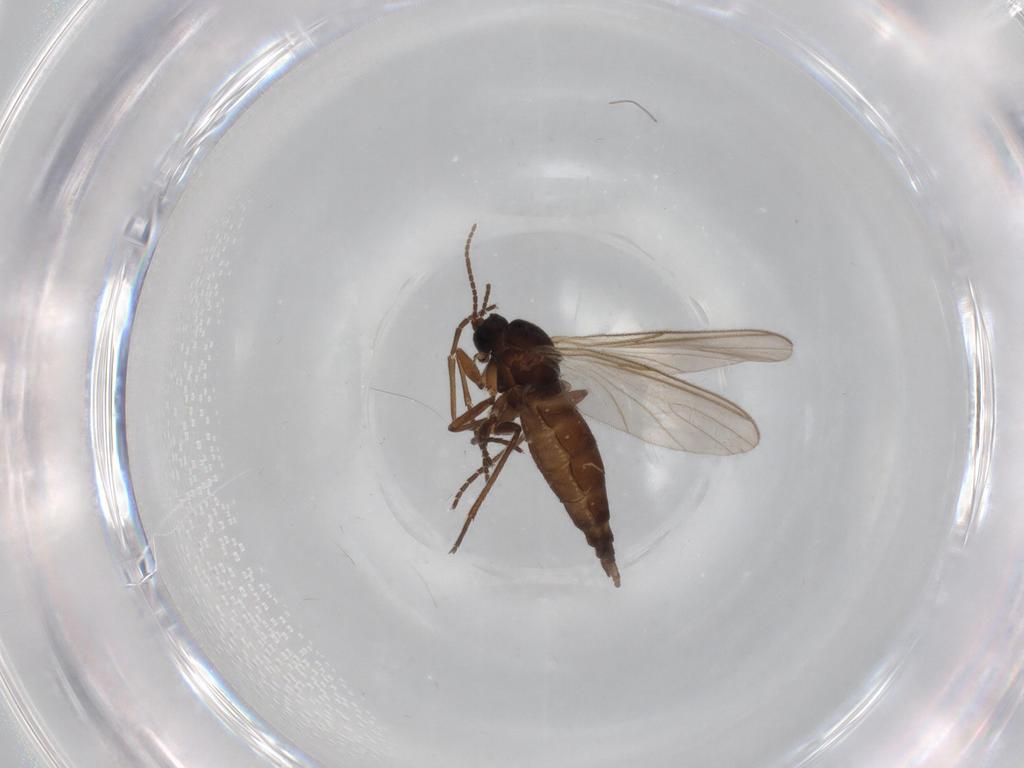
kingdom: Animalia
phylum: Arthropoda
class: Insecta
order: Diptera
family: Sciaridae
